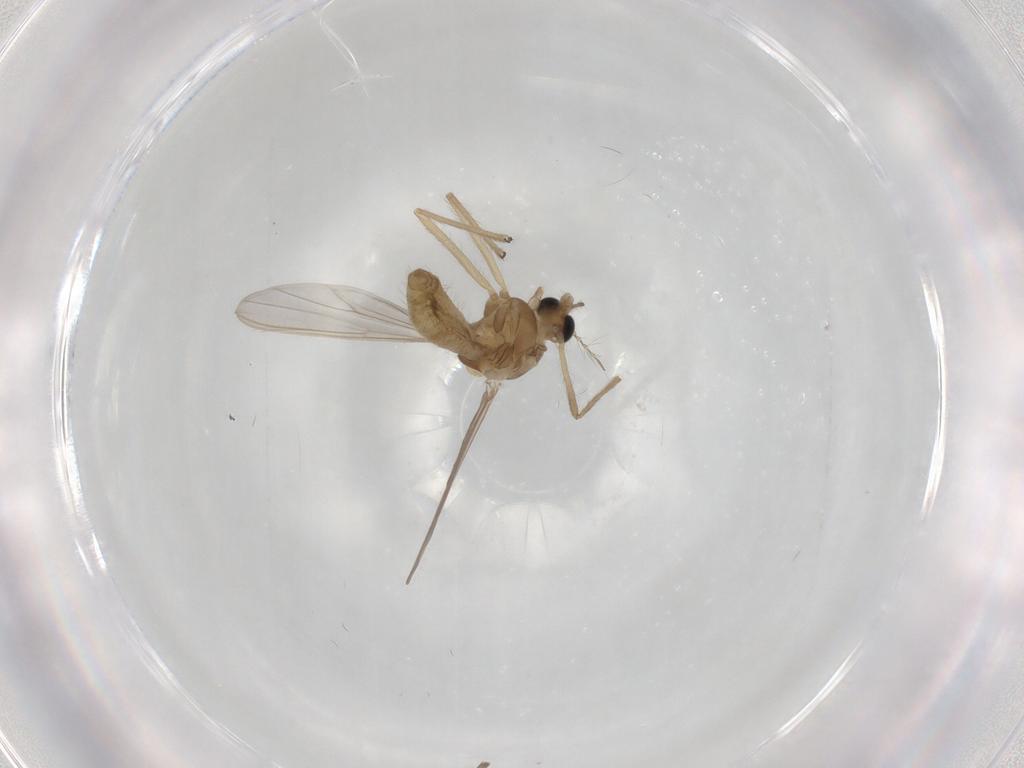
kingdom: Animalia
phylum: Arthropoda
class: Insecta
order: Diptera
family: Chironomidae
